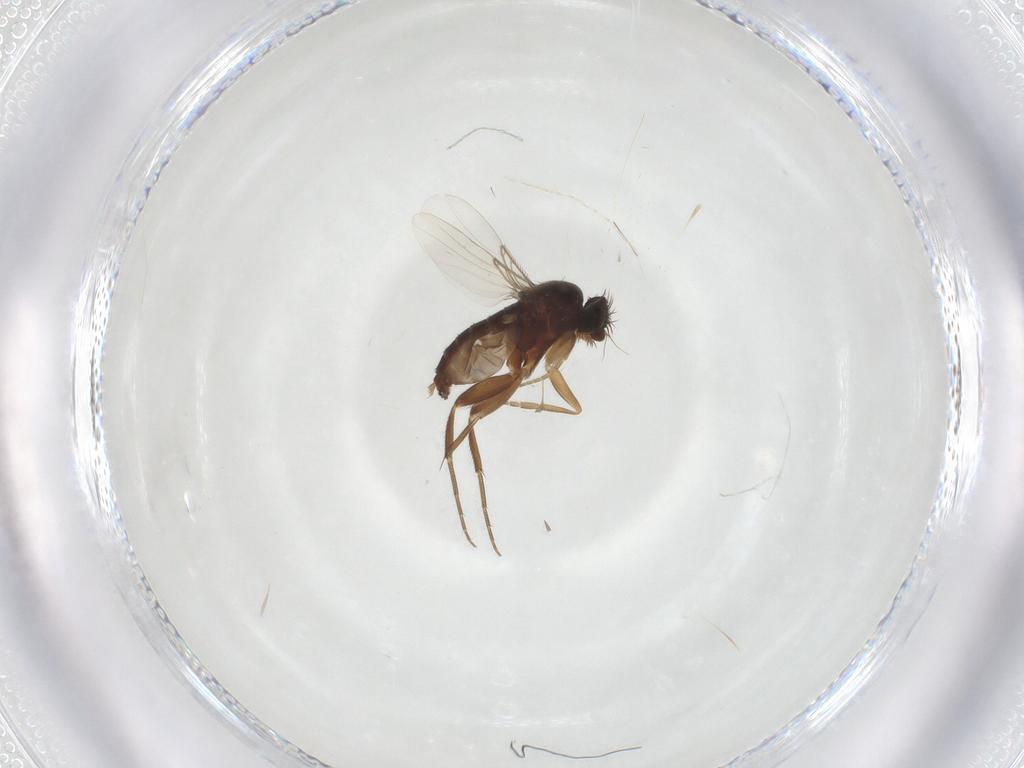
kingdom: Animalia
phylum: Arthropoda
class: Insecta
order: Diptera
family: Phoridae
